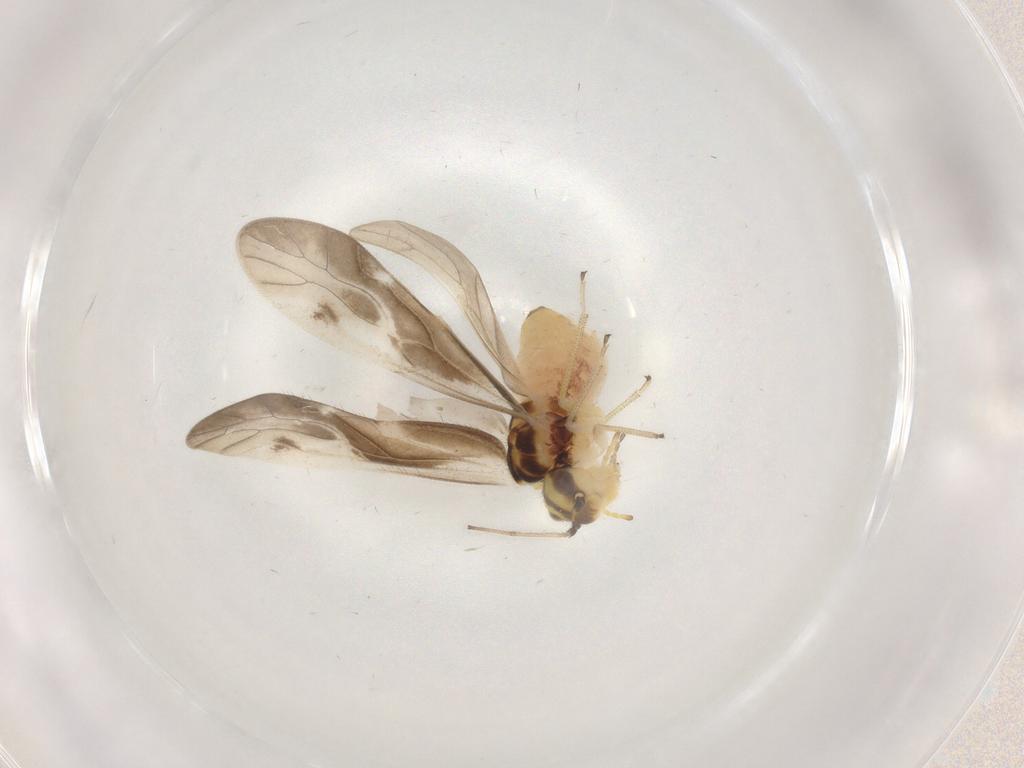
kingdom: Animalia
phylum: Arthropoda
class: Insecta
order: Psocodea
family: Caeciliusidae
